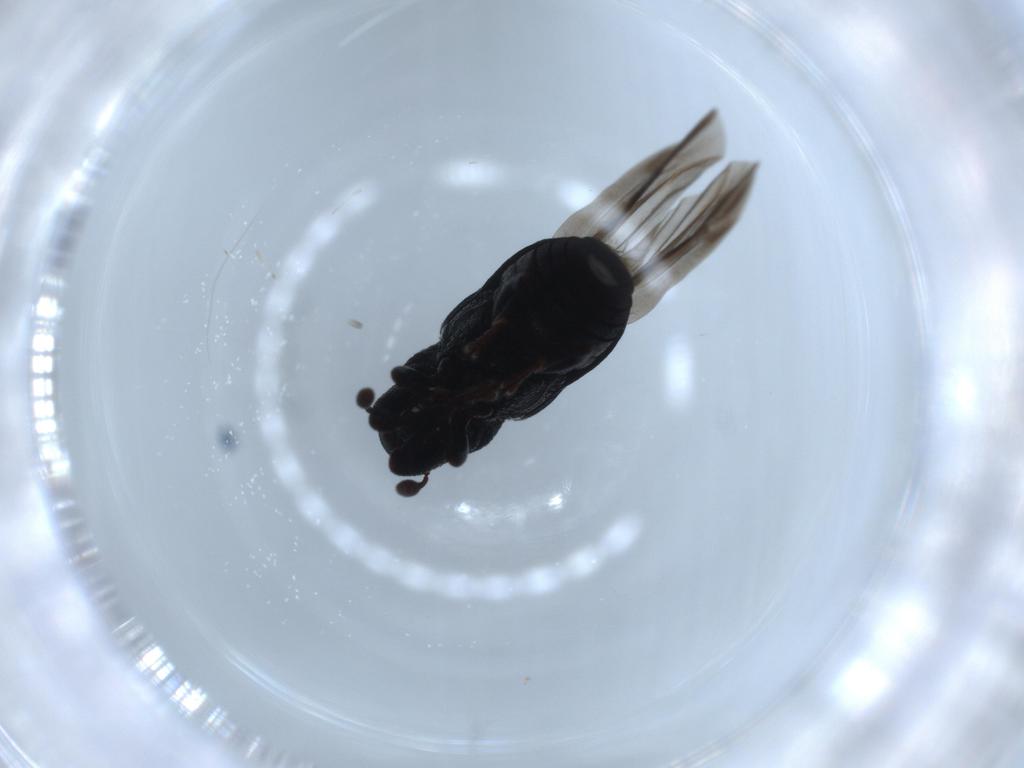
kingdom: Animalia
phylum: Arthropoda
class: Insecta
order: Coleoptera
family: Curculionidae
